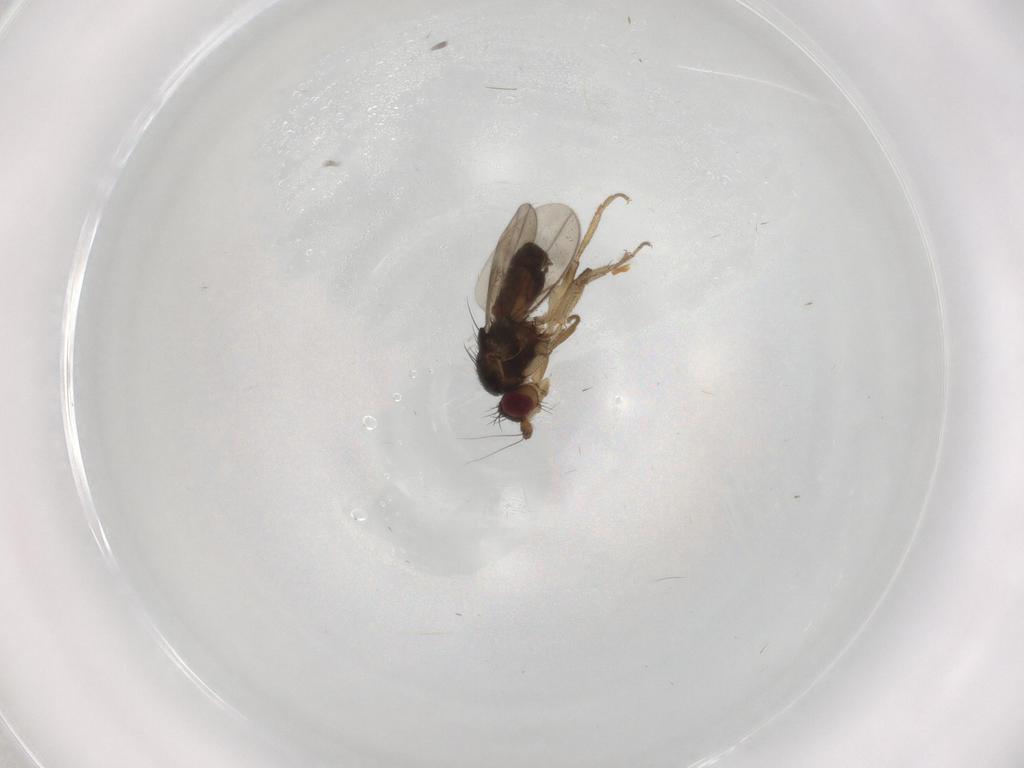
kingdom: Animalia
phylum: Arthropoda
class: Insecta
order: Diptera
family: Sphaeroceridae
